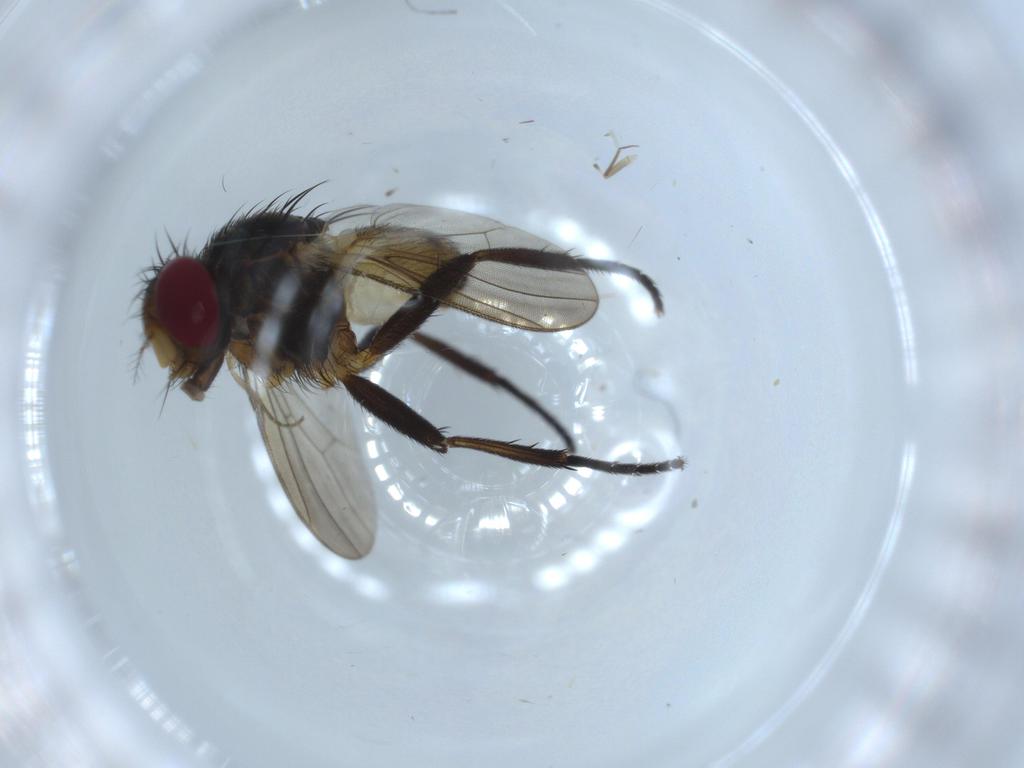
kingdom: Animalia
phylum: Arthropoda
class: Insecta
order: Diptera
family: Anthomyiidae
